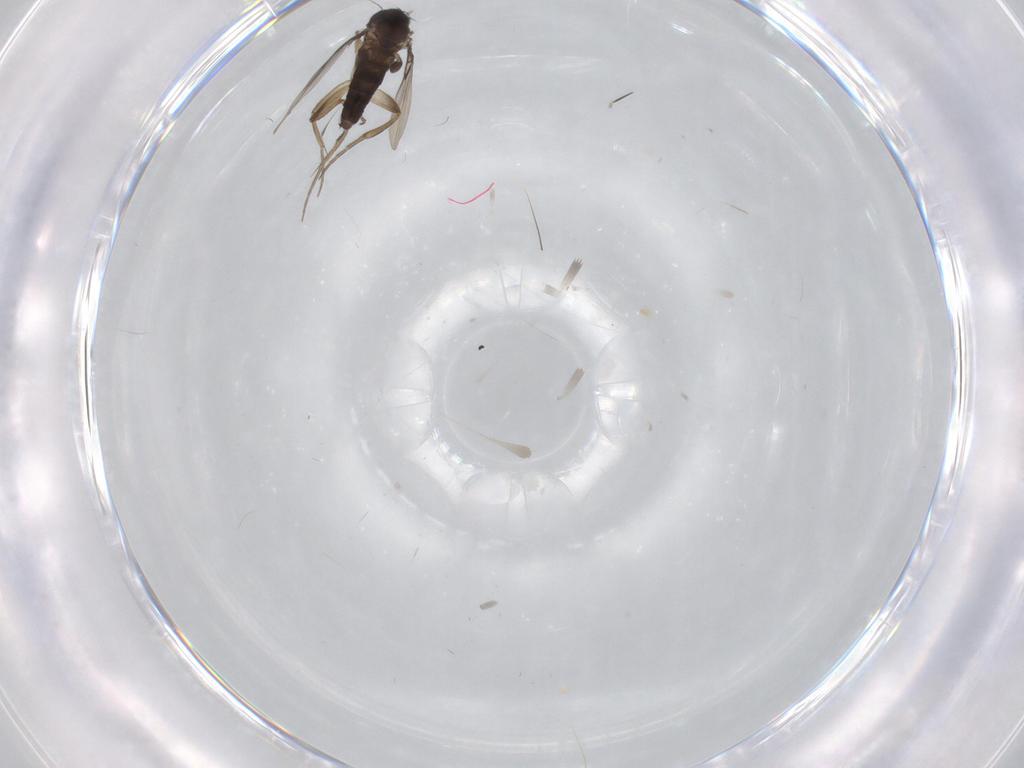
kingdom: Animalia
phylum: Arthropoda
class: Insecta
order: Diptera
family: Phoridae
